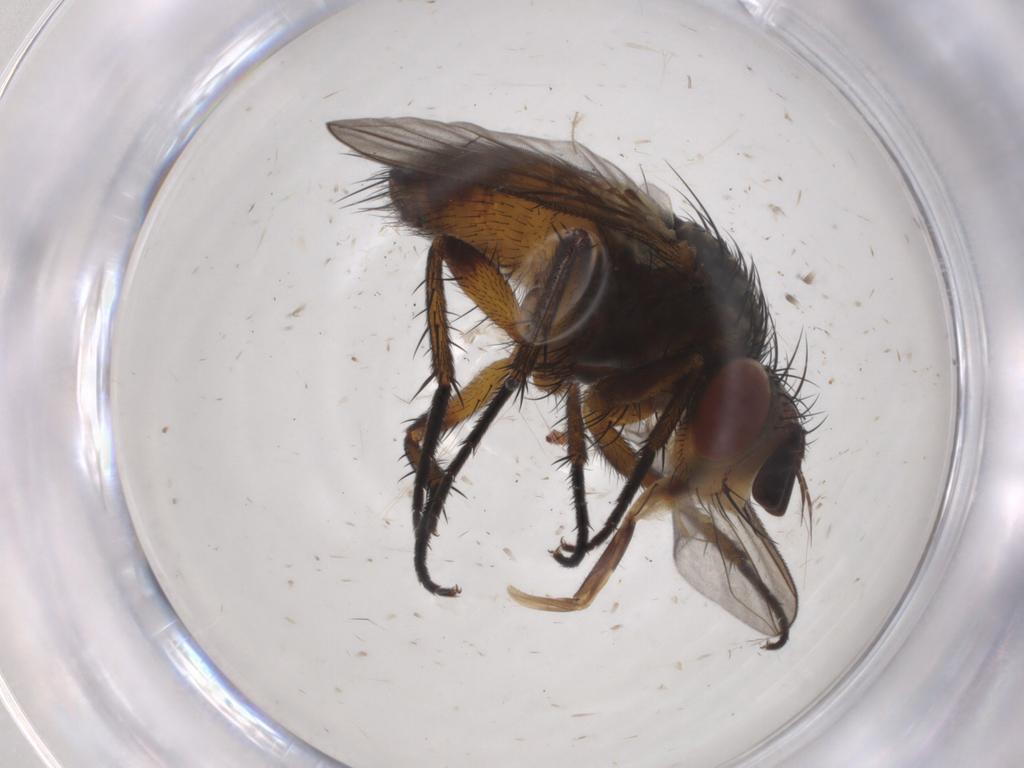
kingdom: Animalia
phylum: Arthropoda
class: Insecta
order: Diptera
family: Tachinidae
